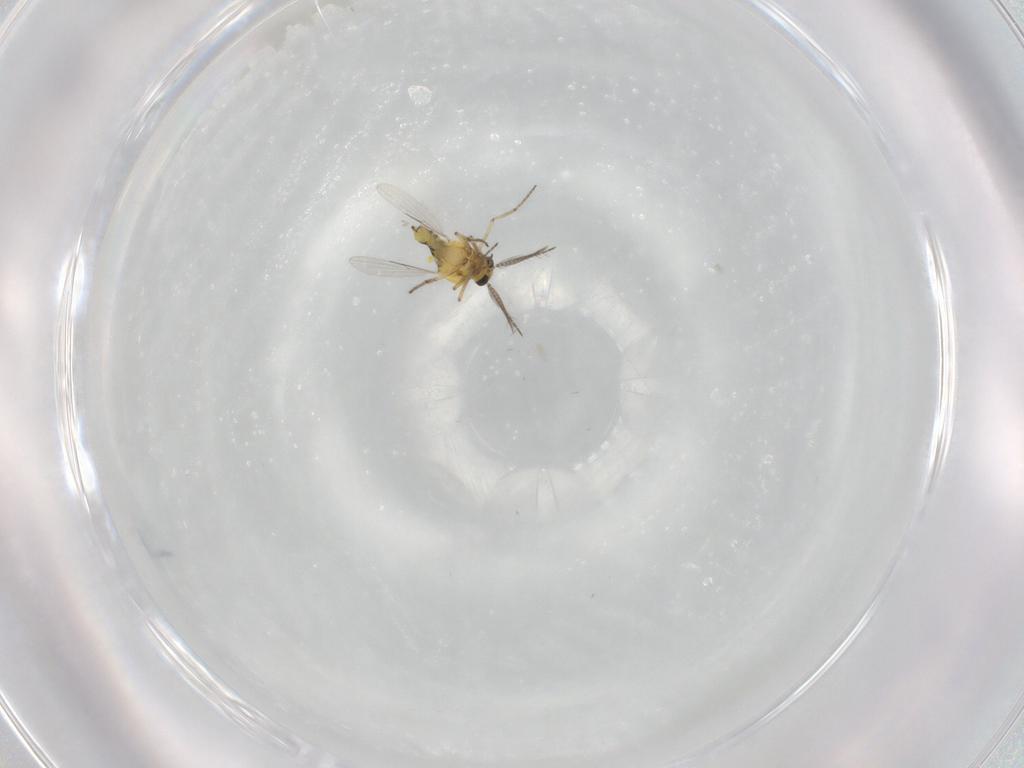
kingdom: Animalia
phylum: Arthropoda
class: Insecta
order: Diptera
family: Ceratopogonidae
